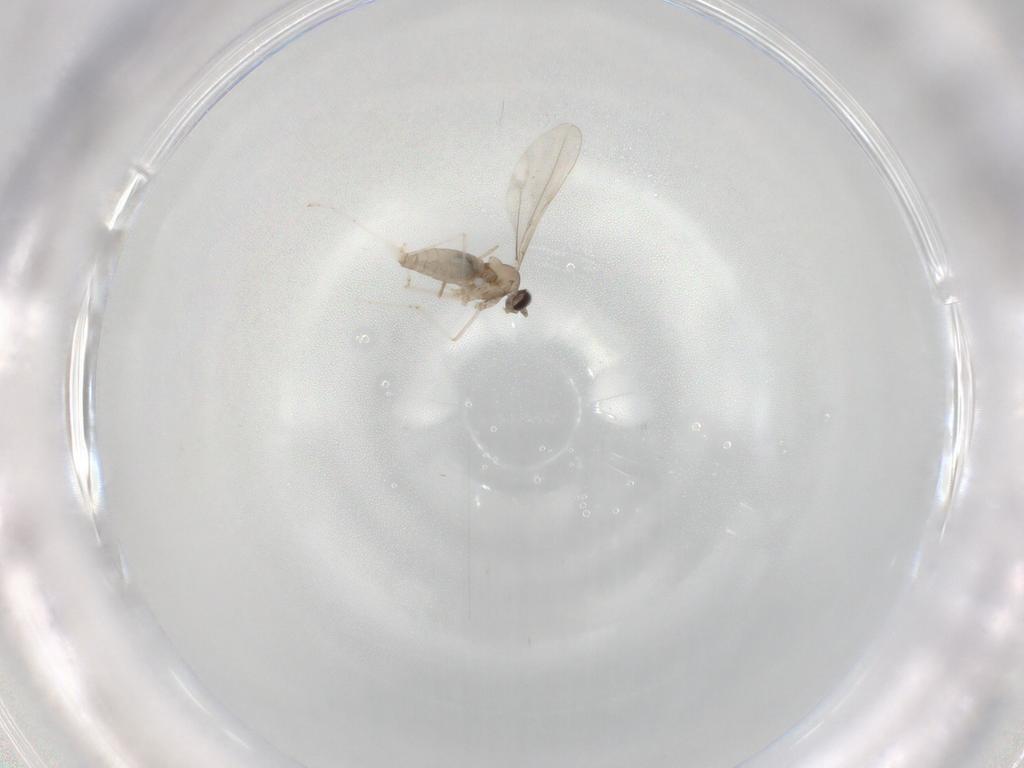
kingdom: Animalia
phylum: Arthropoda
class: Insecta
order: Diptera
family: Cecidomyiidae
